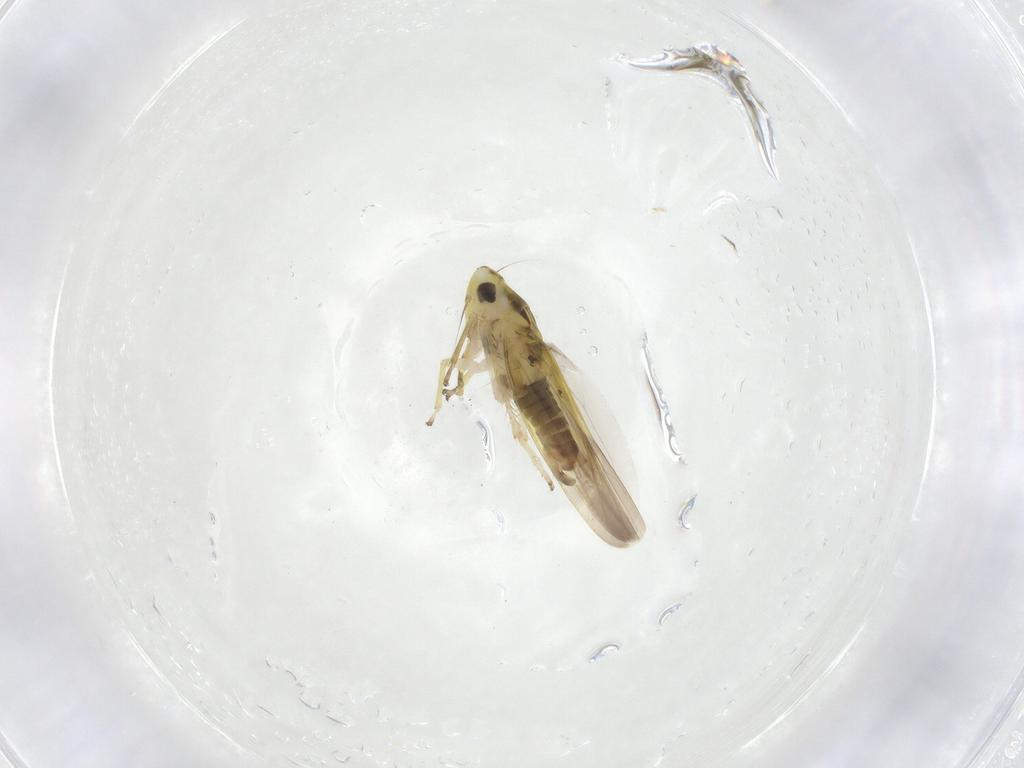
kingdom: Animalia
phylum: Arthropoda
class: Insecta
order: Hemiptera
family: Cicadellidae
